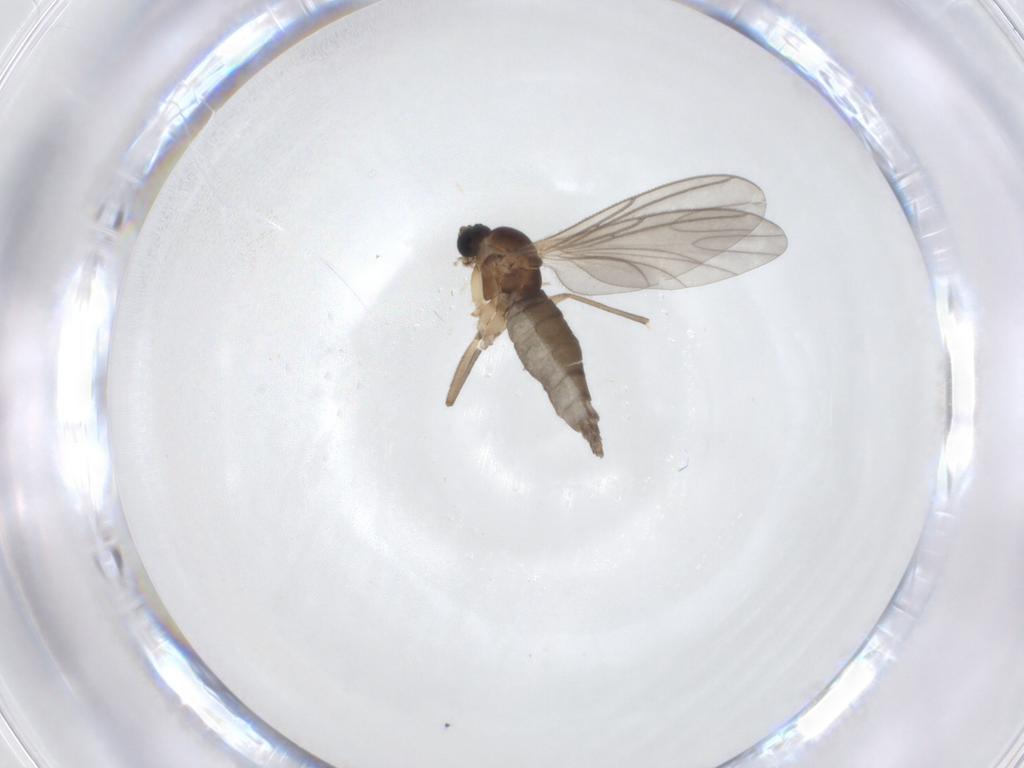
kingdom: Animalia
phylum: Arthropoda
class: Insecta
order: Diptera
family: Sciaridae
